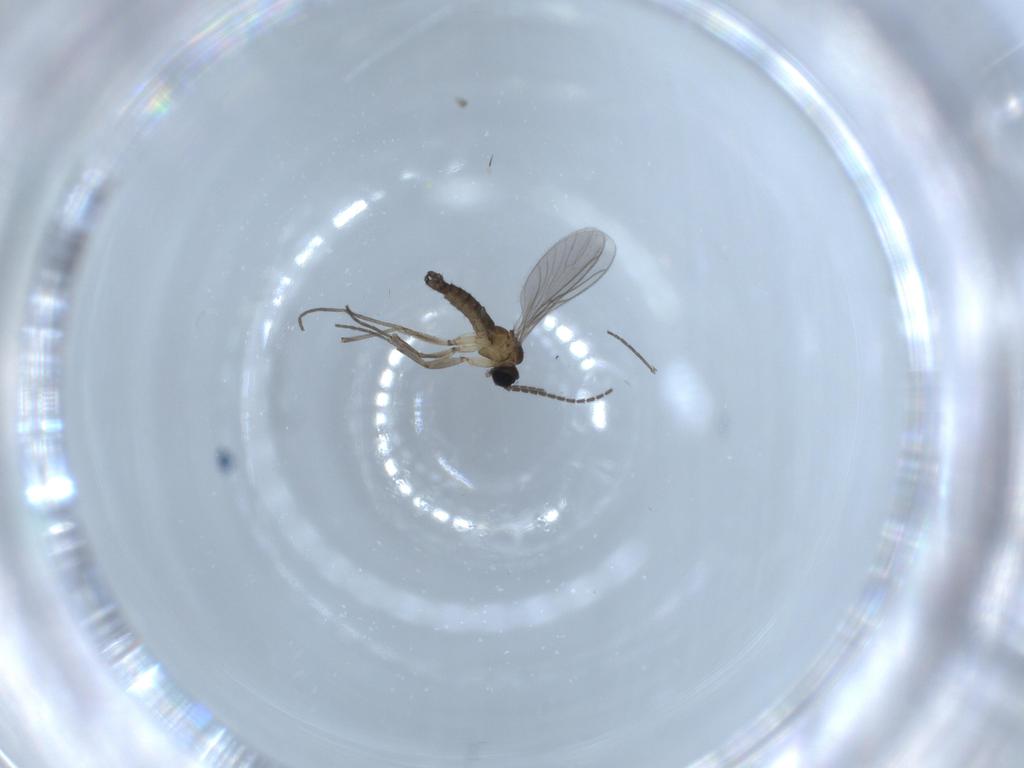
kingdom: Animalia
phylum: Arthropoda
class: Insecta
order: Diptera
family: Sciaridae
